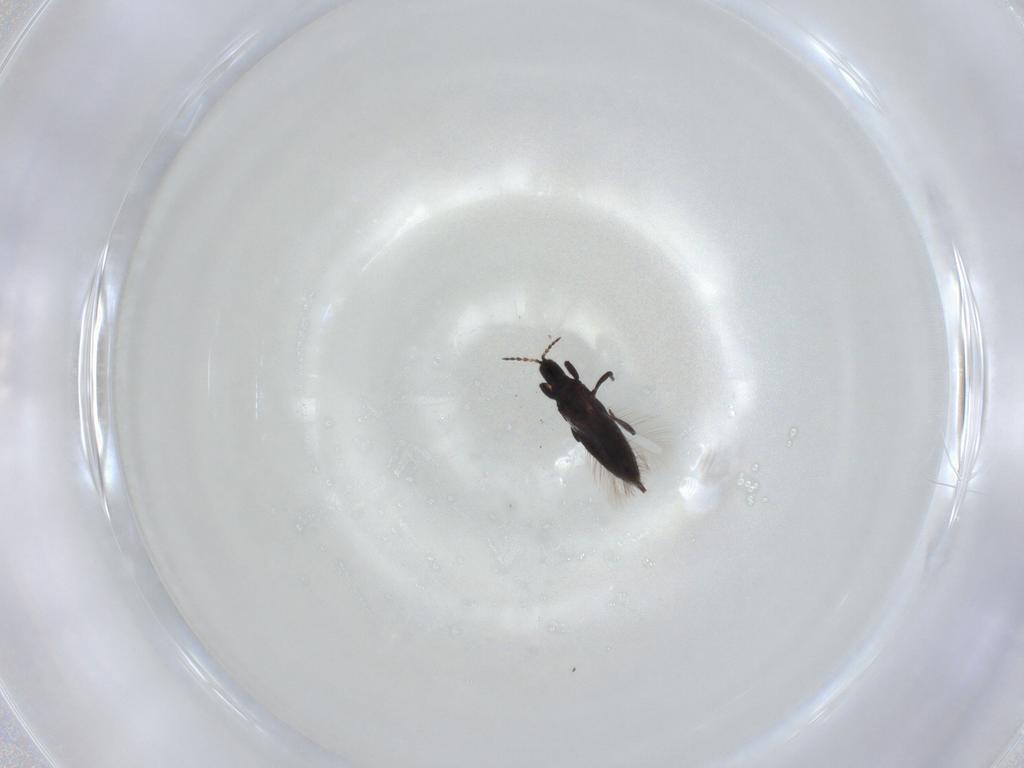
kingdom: Animalia
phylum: Arthropoda
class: Insecta
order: Thysanoptera
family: Phlaeothripidae
